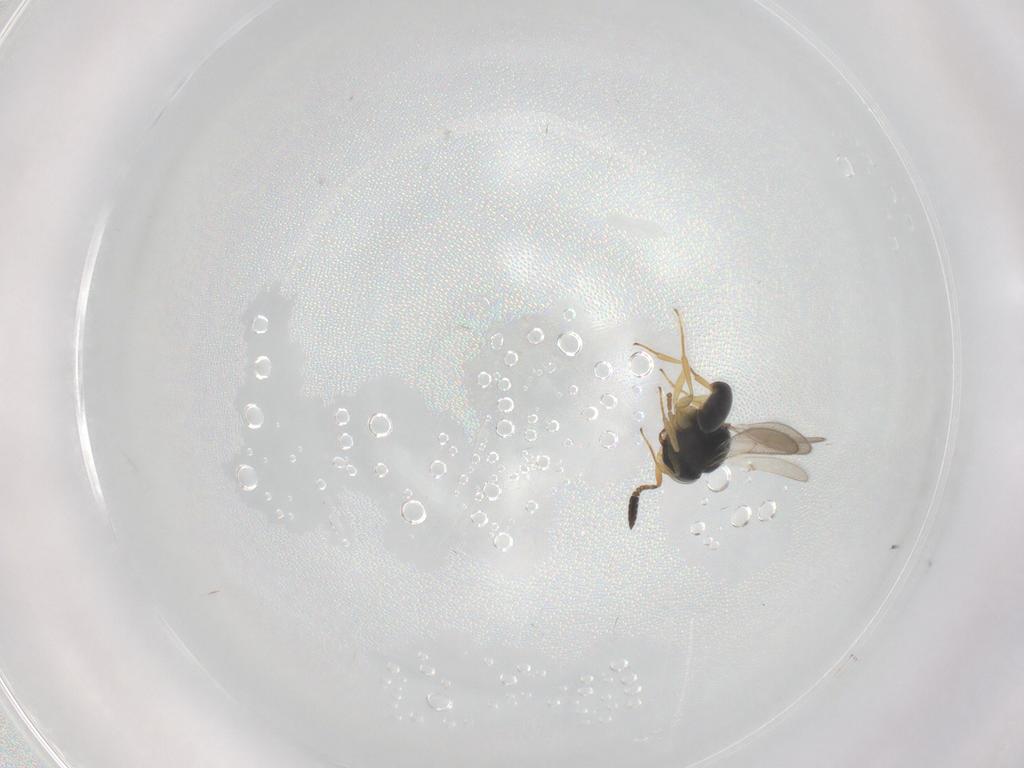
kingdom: Animalia
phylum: Arthropoda
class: Insecta
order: Hymenoptera
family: Scelionidae
